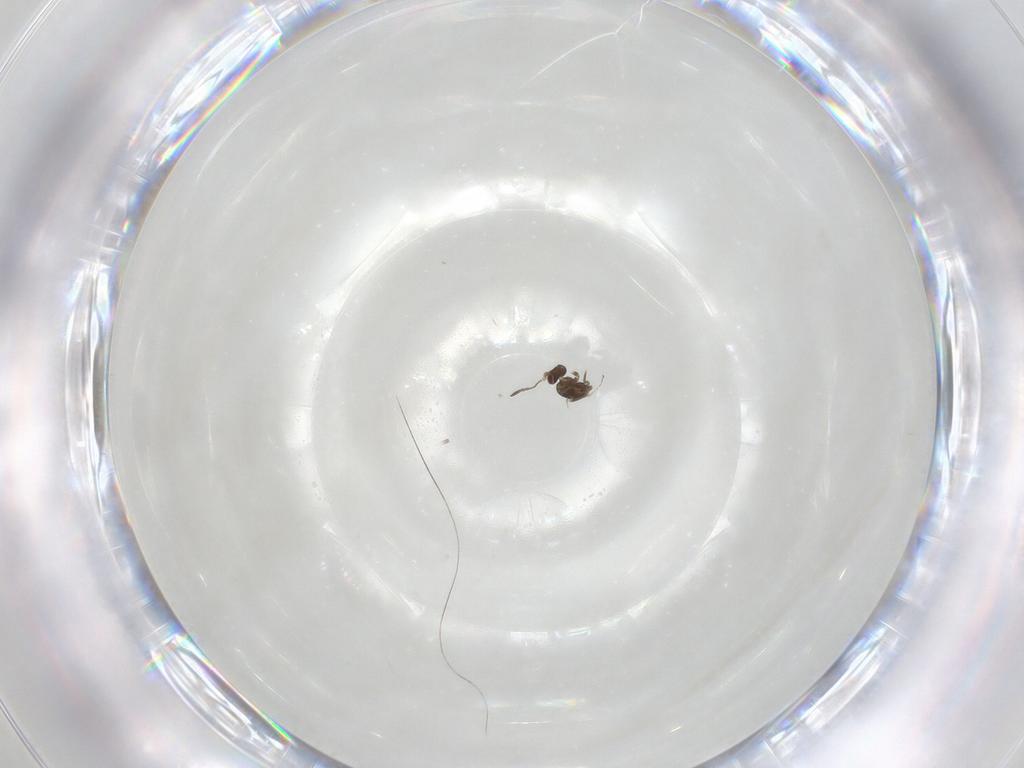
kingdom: Animalia
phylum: Arthropoda
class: Insecta
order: Hymenoptera
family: Mymaridae
